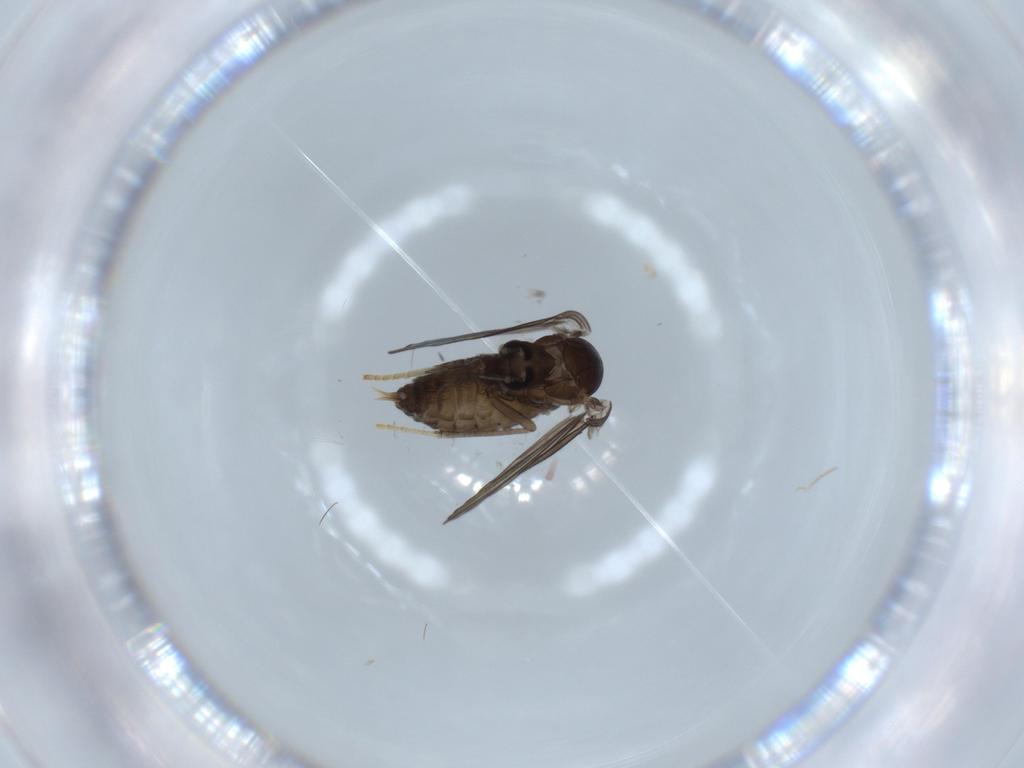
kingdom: Animalia
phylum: Arthropoda
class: Insecta
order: Diptera
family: Psychodidae
